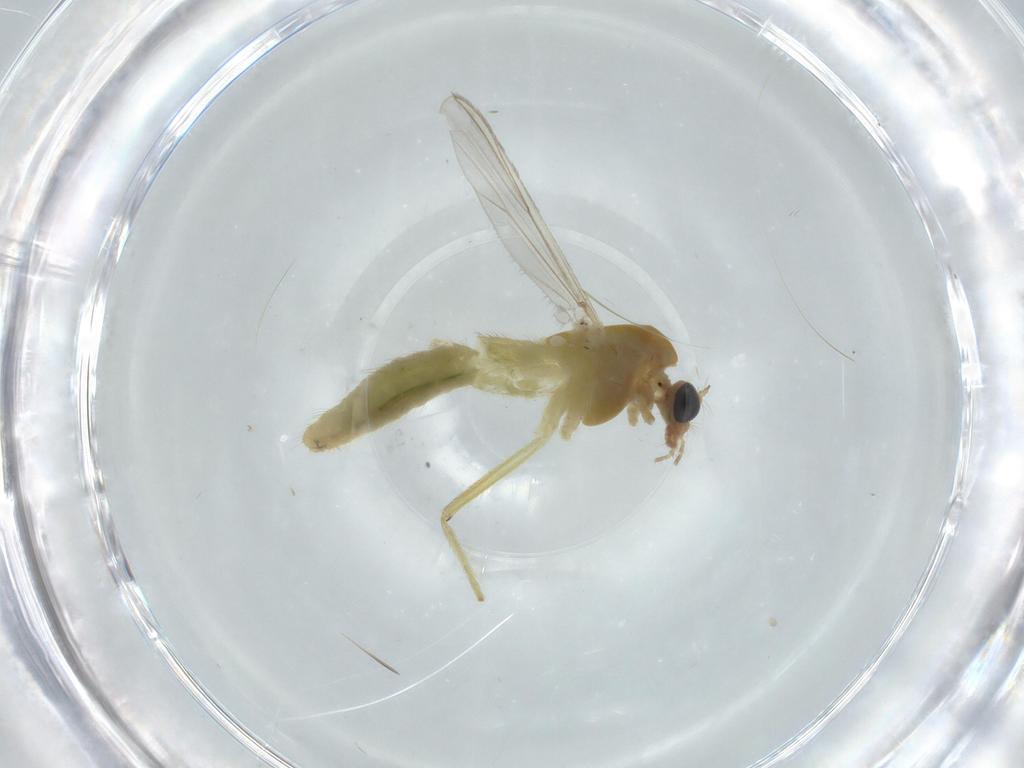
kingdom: Animalia
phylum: Arthropoda
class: Insecta
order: Diptera
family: Chironomidae
